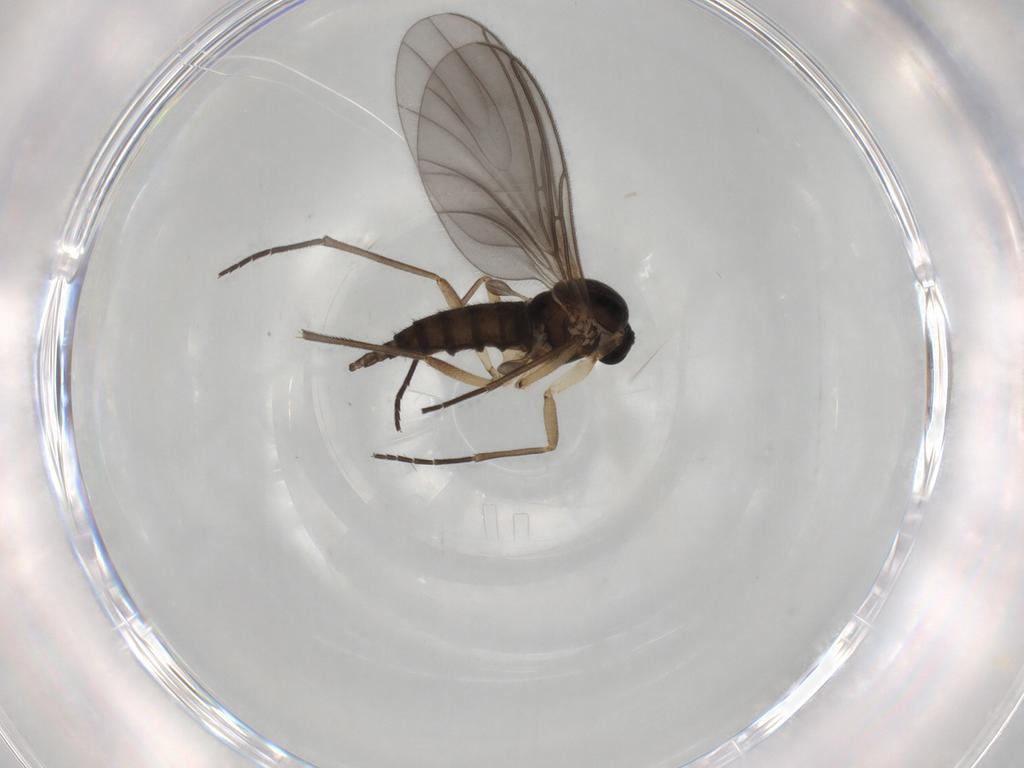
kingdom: Animalia
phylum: Arthropoda
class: Insecta
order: Diptera
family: Sciaridae
